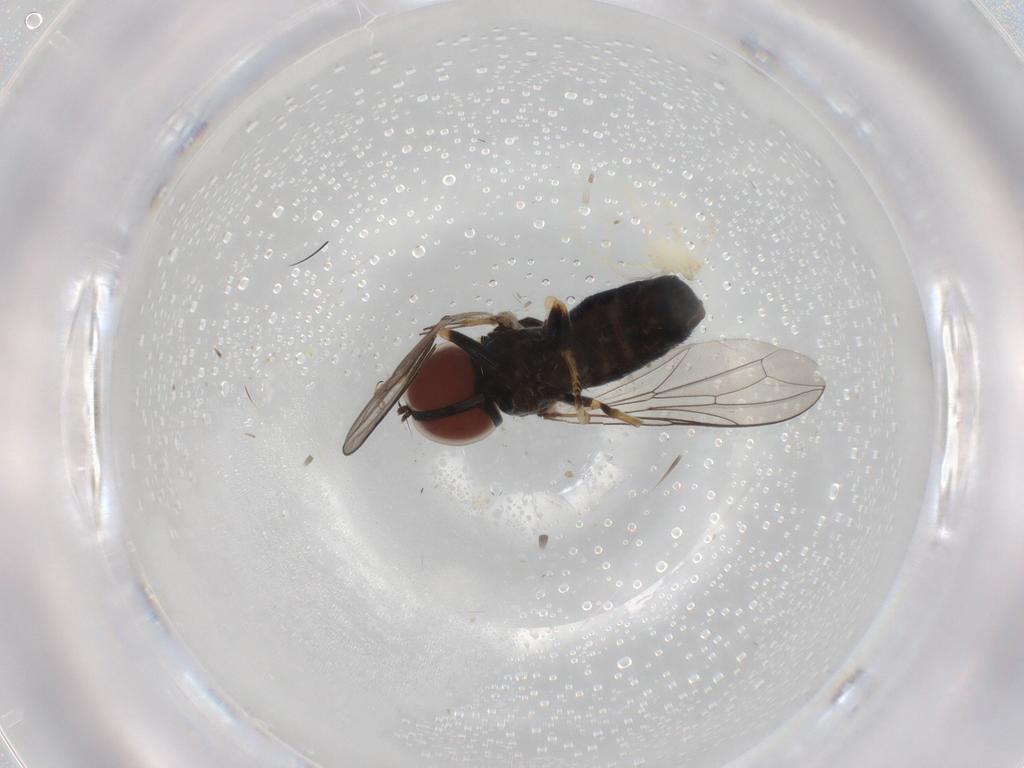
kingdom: Animalia
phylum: Arthropoda
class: Insecta
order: Diptera
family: Pipunculidae
